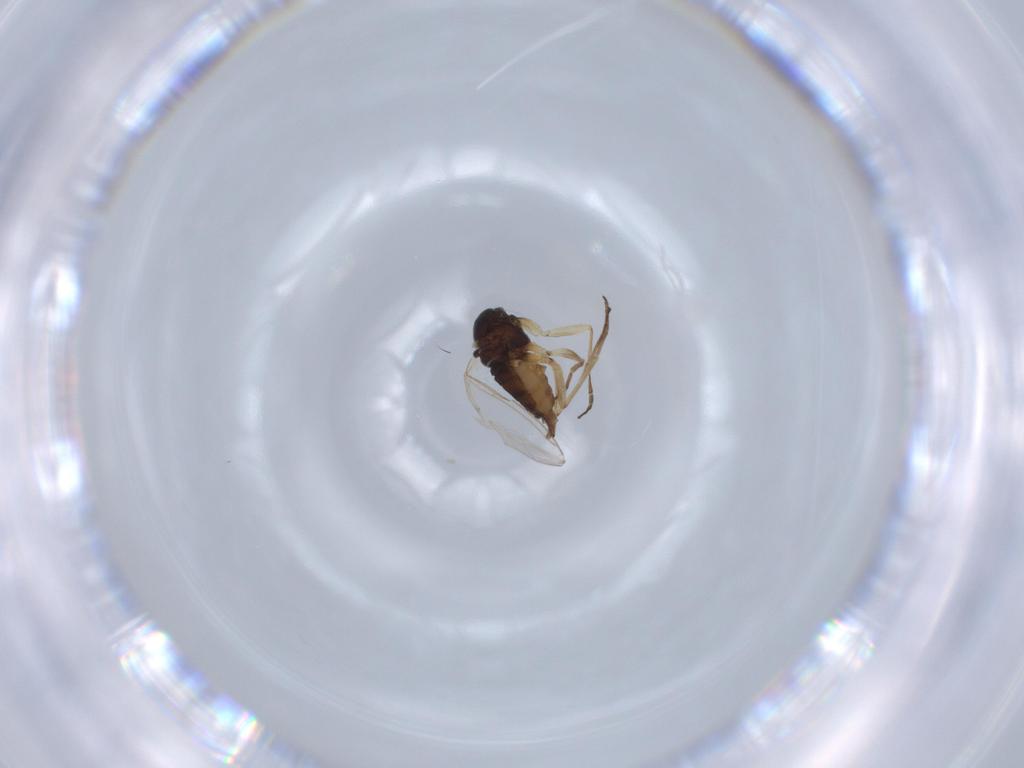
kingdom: Animalia
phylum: Arthropoda
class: Insecta
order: Diptera
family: Sciaridae
